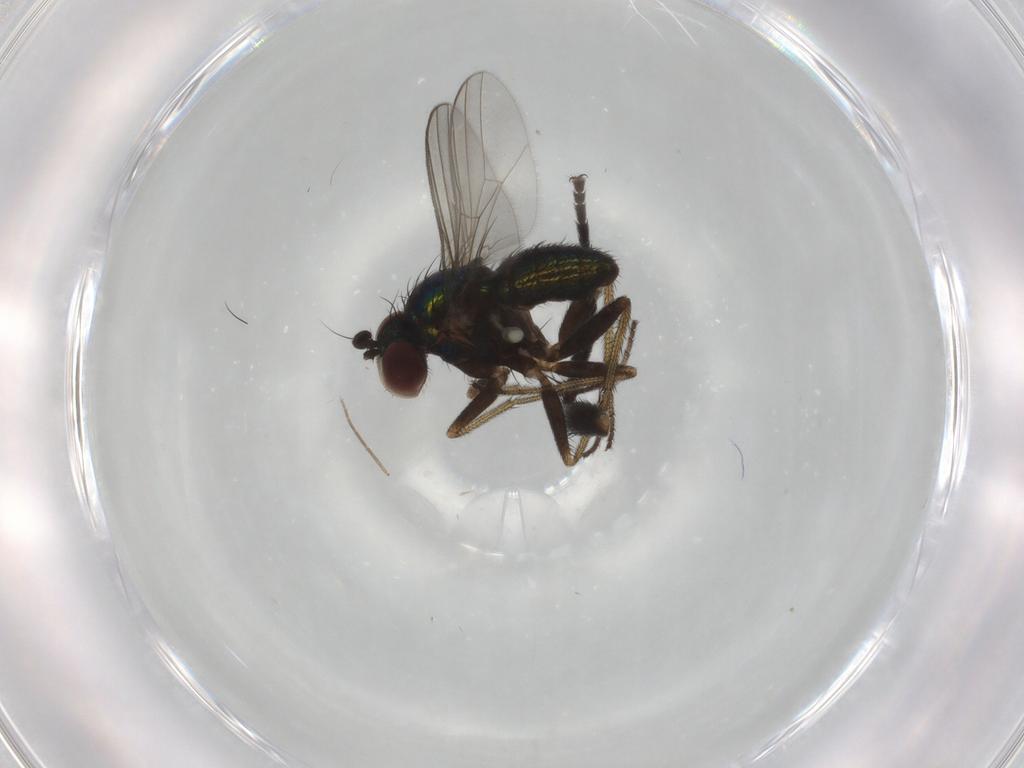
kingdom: Animalia
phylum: Arthropoda
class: Insecta
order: Diptera
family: Dolichopodidae
